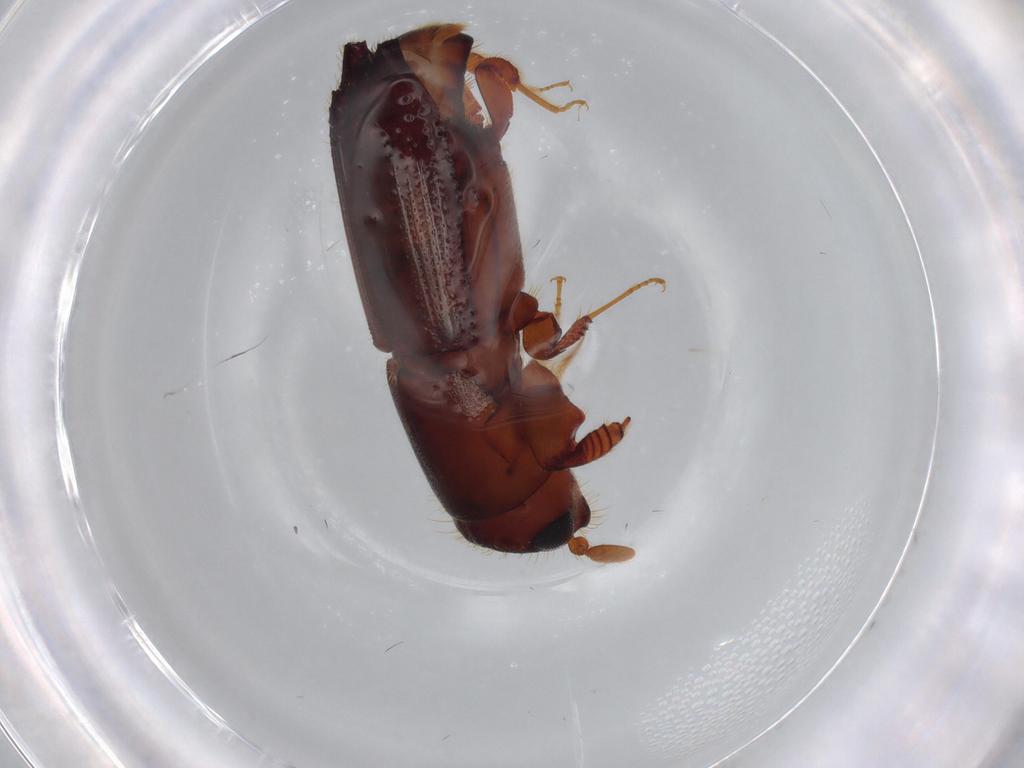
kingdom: Animalia
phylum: Arthropoda
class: Insecta
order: Coleoptera
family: Curculionidae
